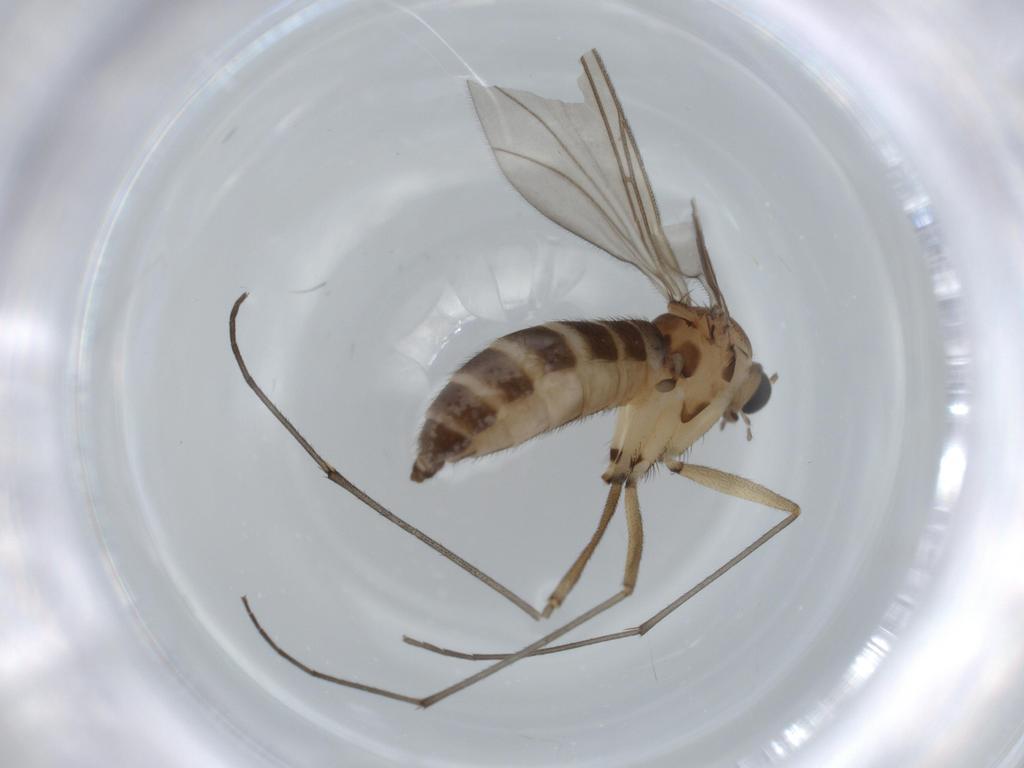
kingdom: Animalia
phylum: Arthropoda
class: Insecta
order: Diptera
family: Sciaridae
